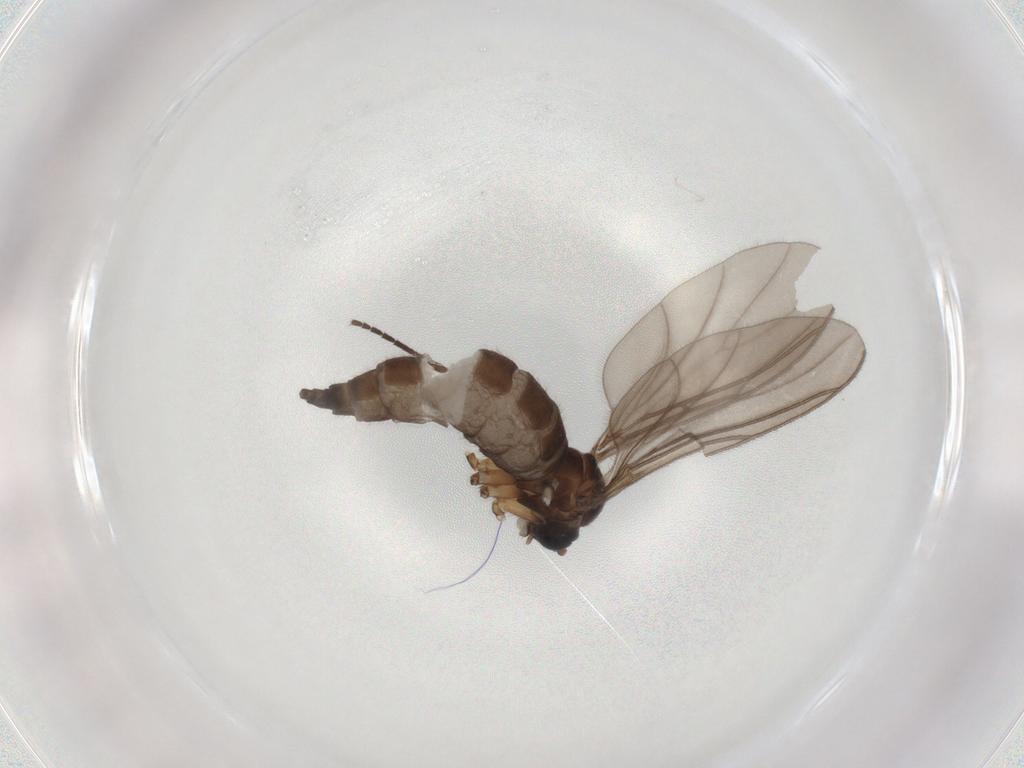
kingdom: Animalia
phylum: Arthropoda
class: Insecta
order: Diptera
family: Sciaridae
